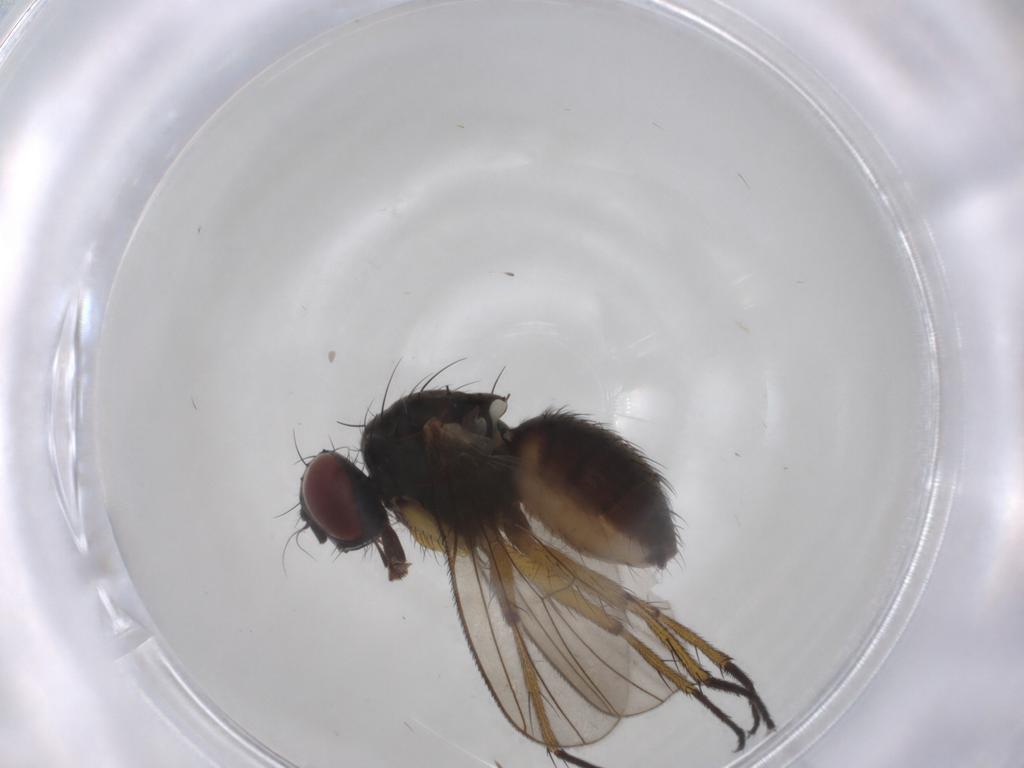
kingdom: Animalia
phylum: Arthropoda
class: Insecta
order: Diptera
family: Muscidae
